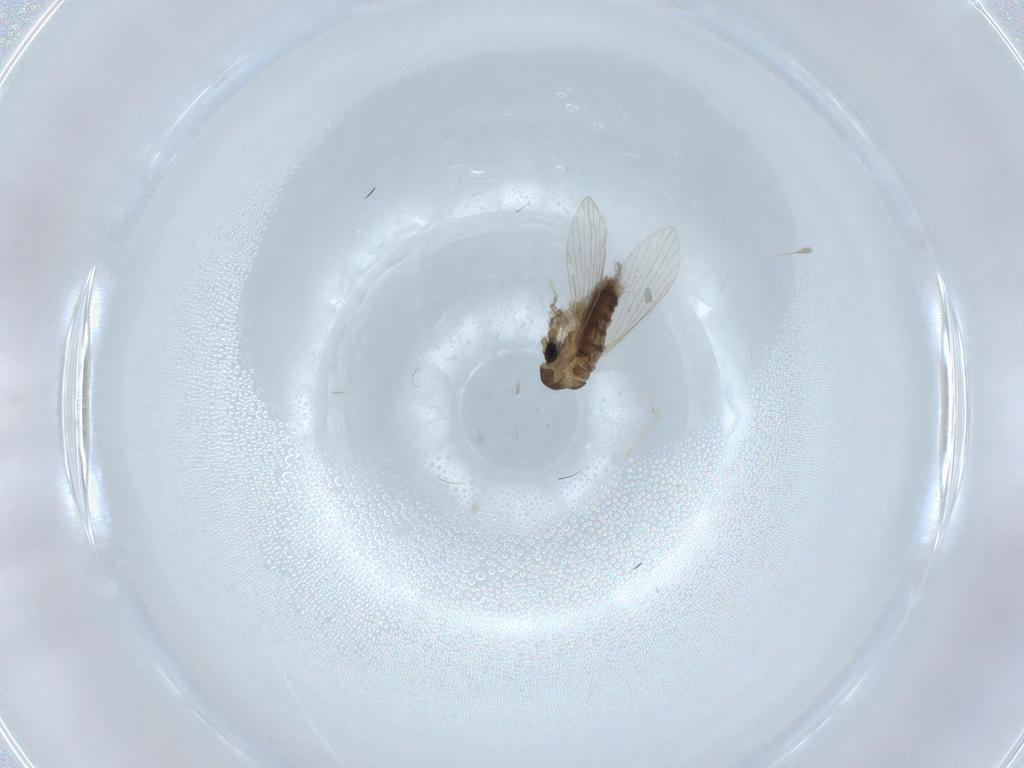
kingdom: Animalia
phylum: Arthropoda
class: Insecta
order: Diptera
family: Psychodidae
